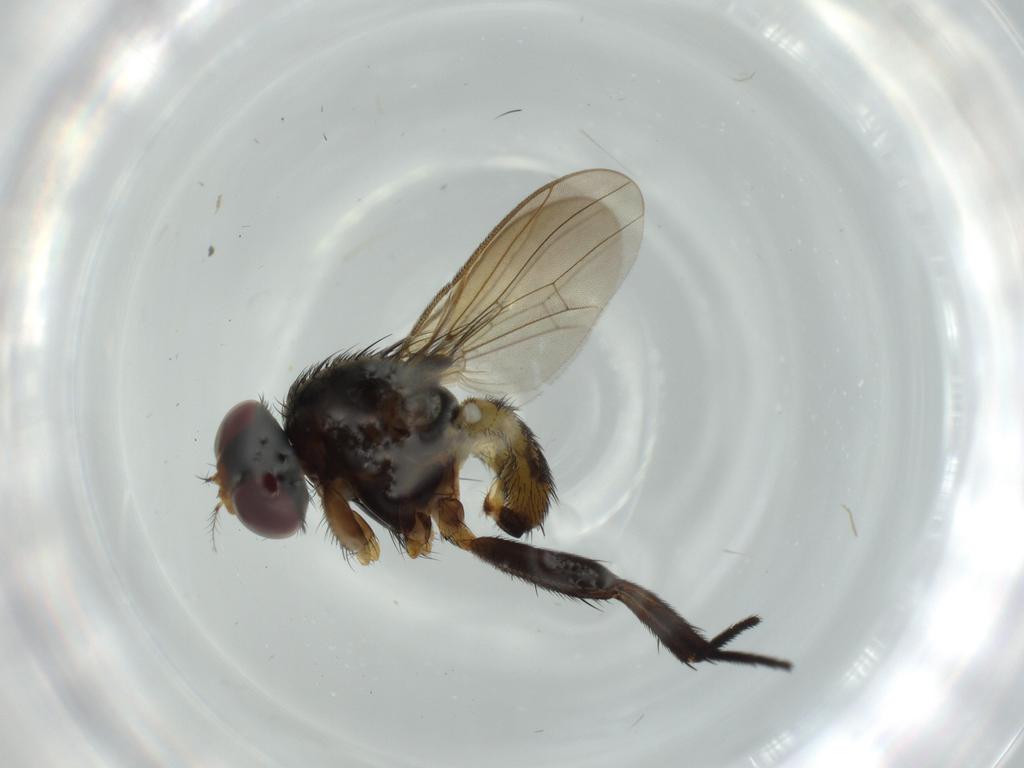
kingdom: Animalia
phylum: Arthropoda
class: Insecta
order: Diptera
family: Anthomyiidae
